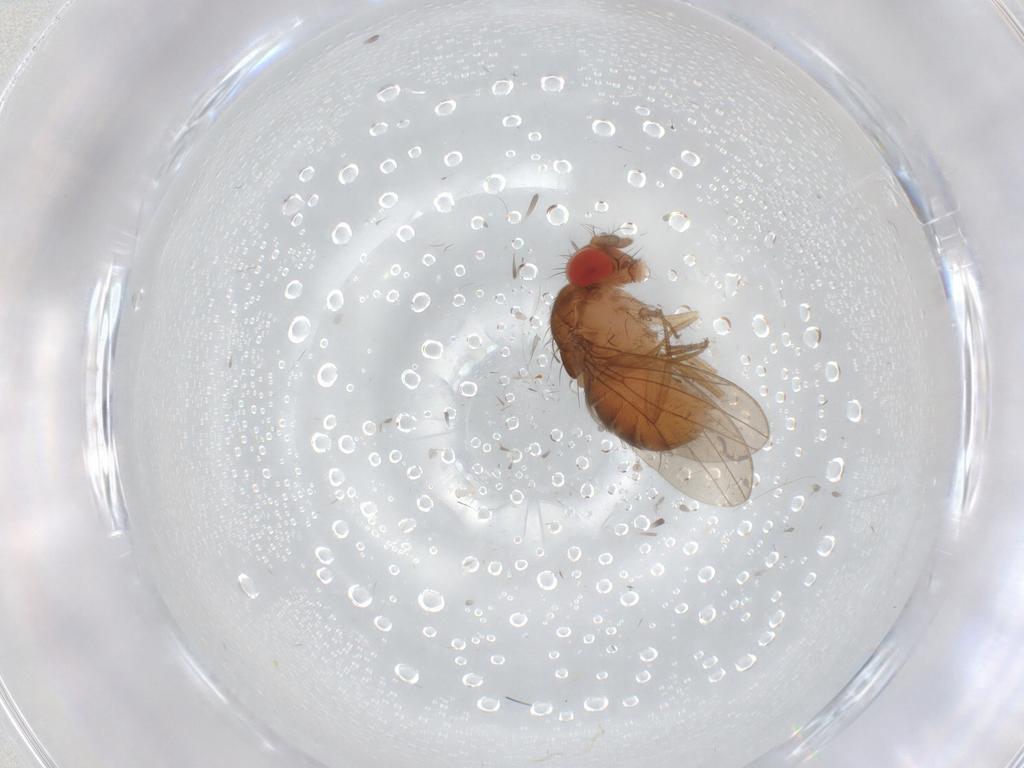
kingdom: Animalia
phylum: Arthropoda
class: Insecta
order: Diptera
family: Drosophilidae
